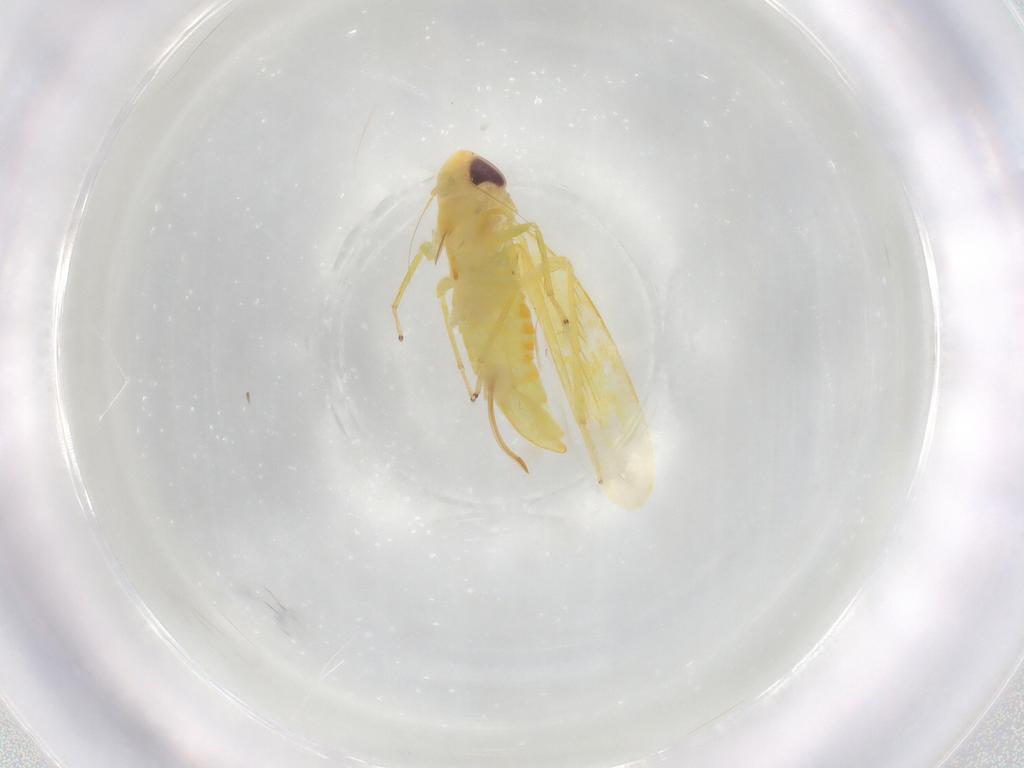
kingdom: Animalia
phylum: Arthropoda
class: Insecta
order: Hemiptera
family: Cicadellidae
